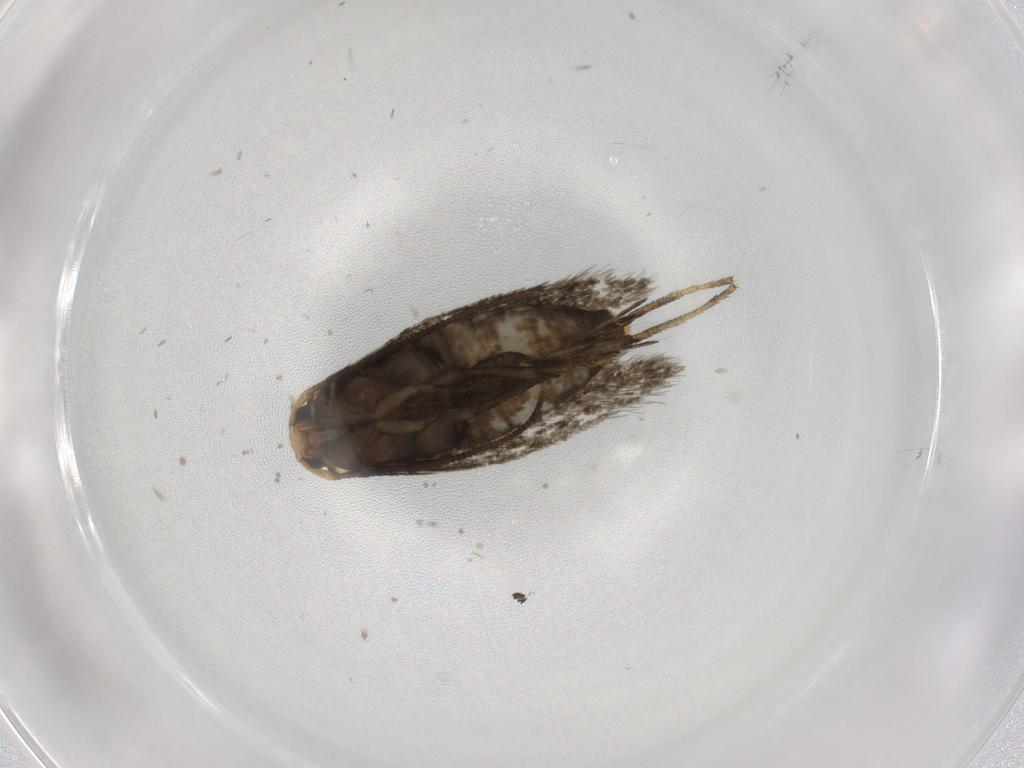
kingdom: Animalia
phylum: Arthropoda
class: Insecta
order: Lepidoptera
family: Nepticulidae
